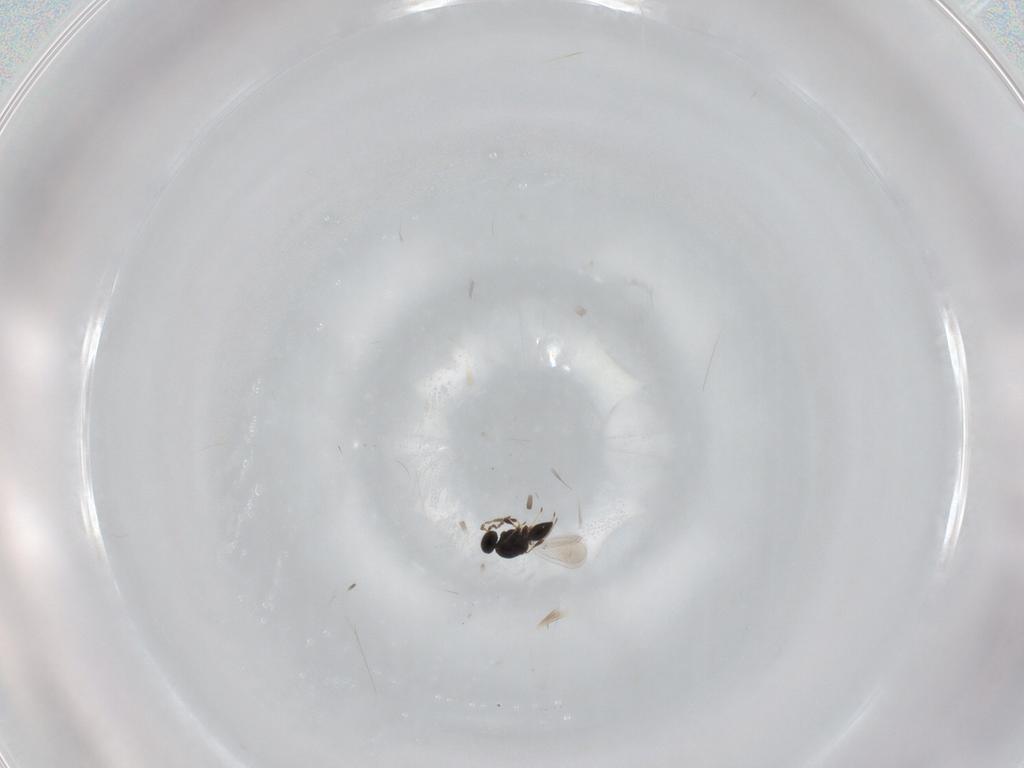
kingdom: Animalia
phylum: Arthropoda
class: Insecta
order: Hymenoptera
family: Platygastridae
